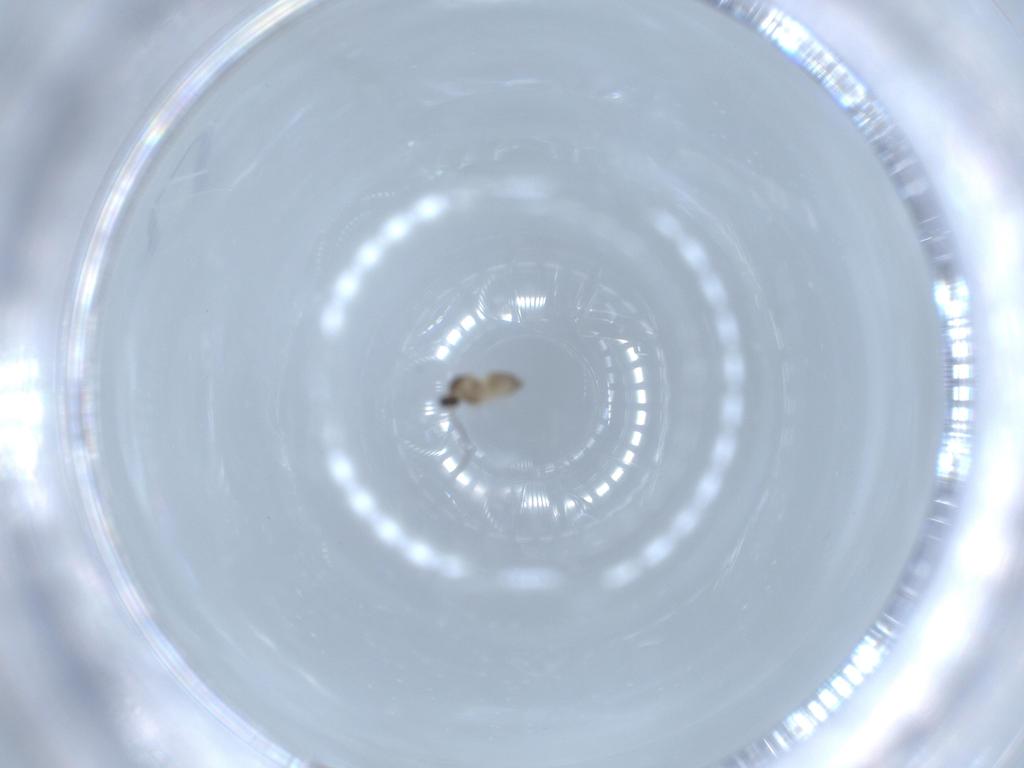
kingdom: Animalia
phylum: Arthropoda
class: Insecta
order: Diptera
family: Cecidomyiidae
